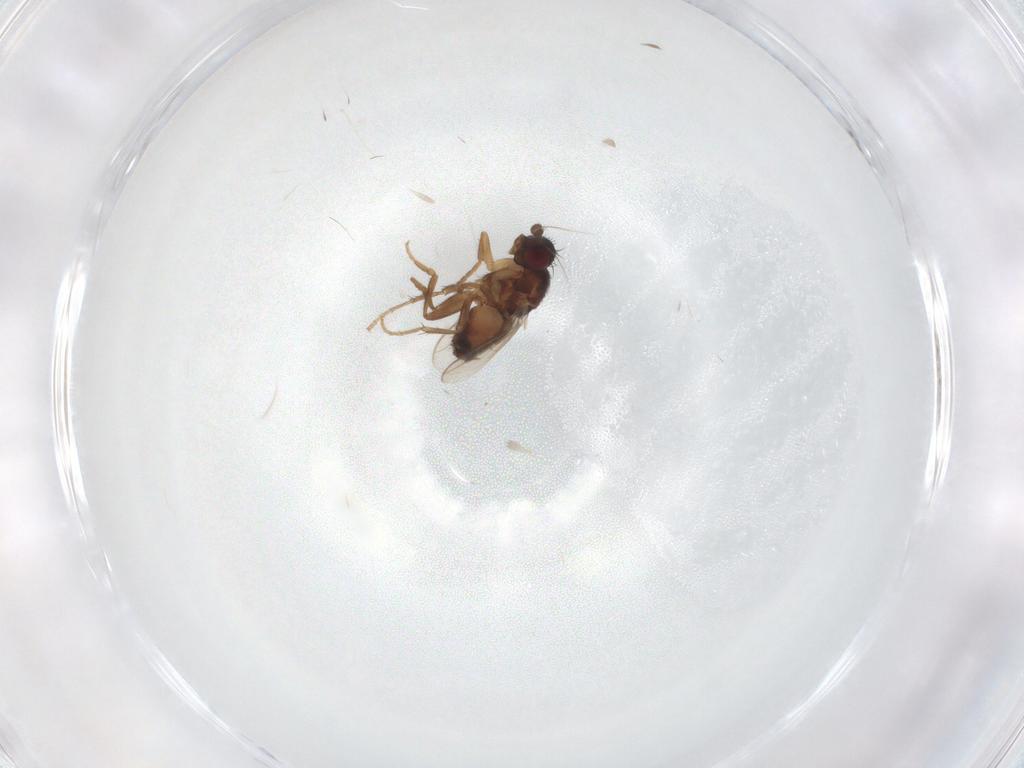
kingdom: Animalia
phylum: Arthropoda
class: Insecta
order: Diptera
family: Sphaeroceridae
